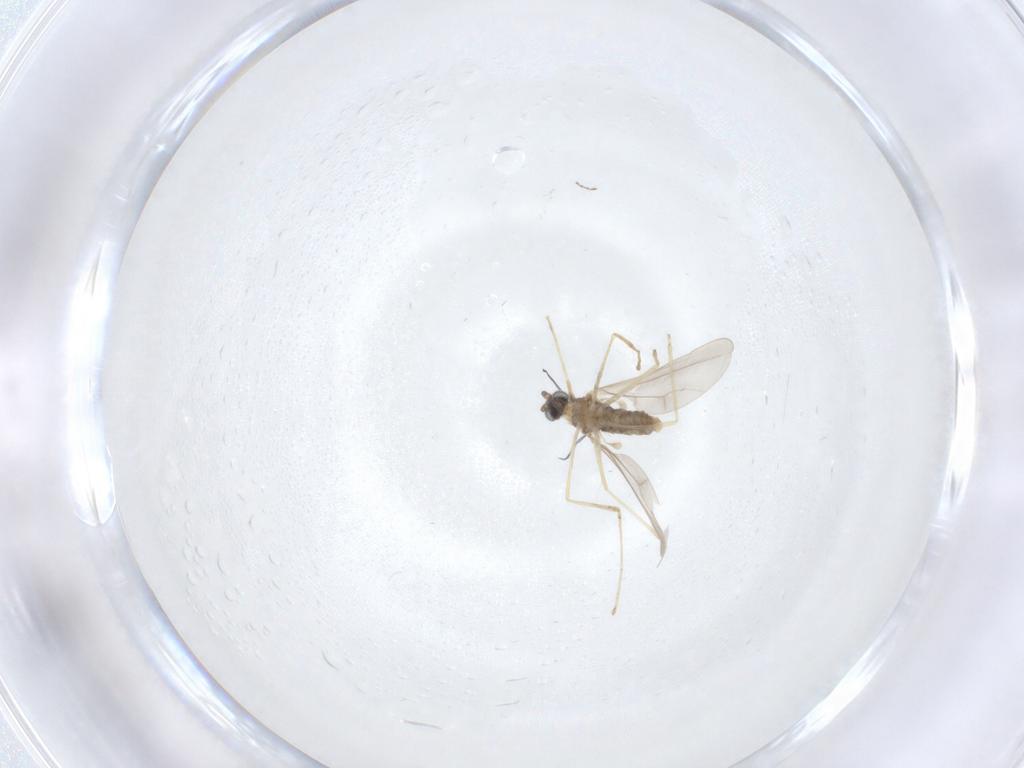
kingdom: Animalia
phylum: Arthropoda
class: Insecta
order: Diptera
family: Cecidomyiidae
